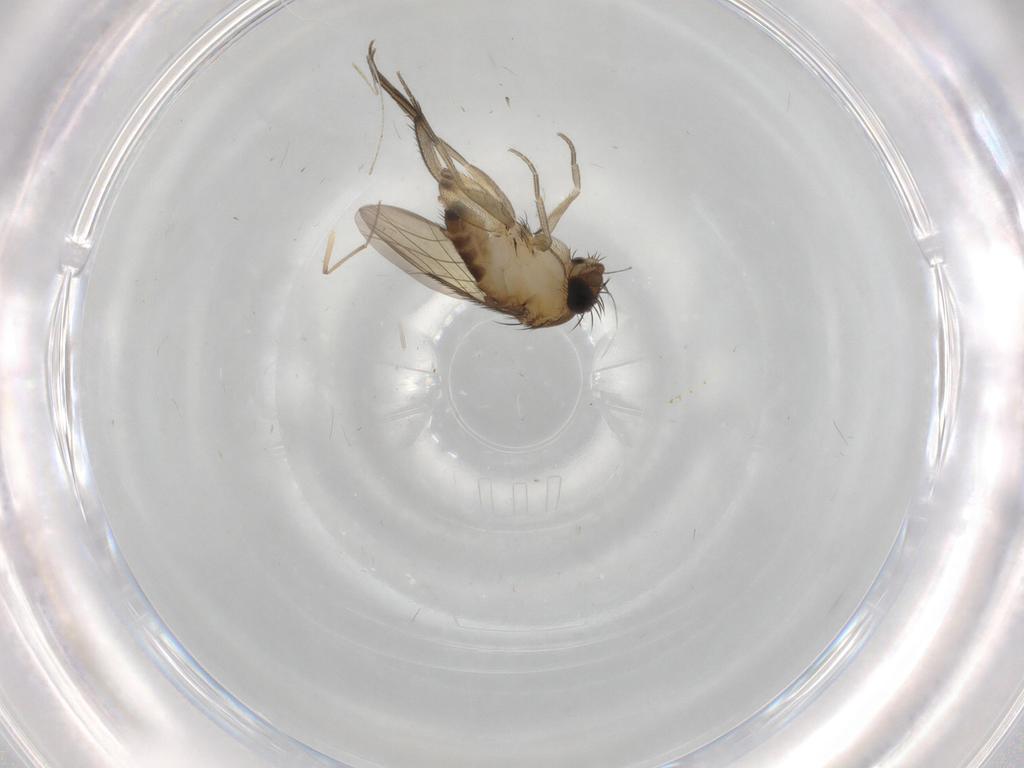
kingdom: Animalia
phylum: Arthropoda
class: Insecta
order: Diptera
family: Phoridae
